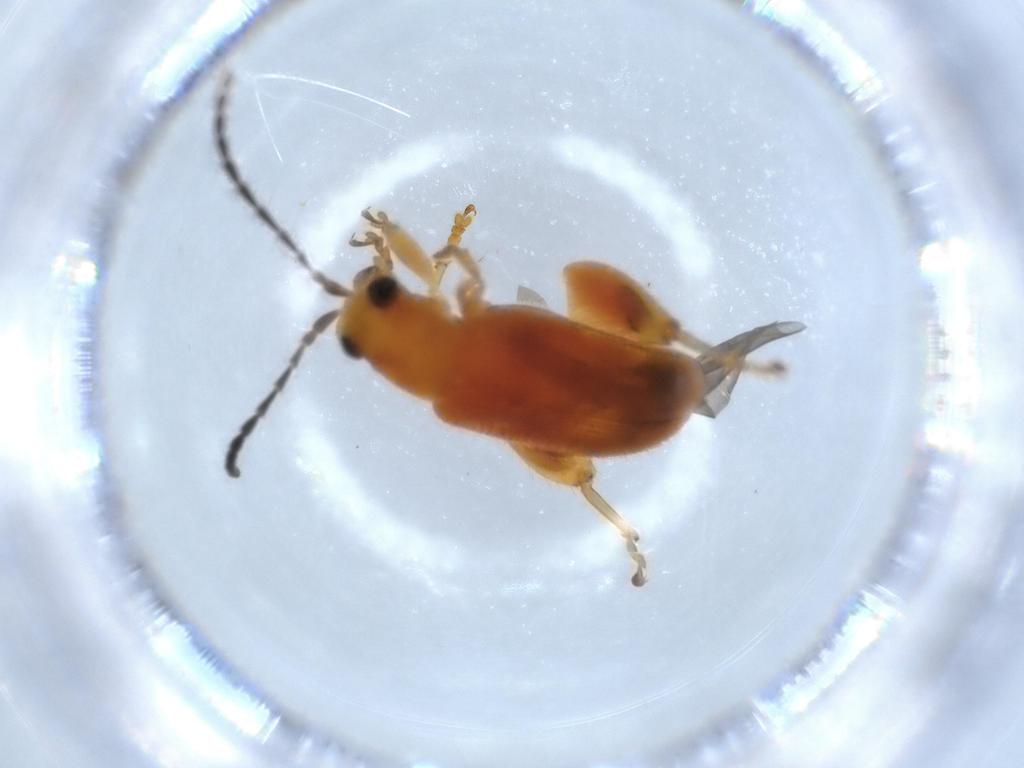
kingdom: Animalia
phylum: Arthropoda
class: Insecta
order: Coleoptera
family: Chrysomelidae
